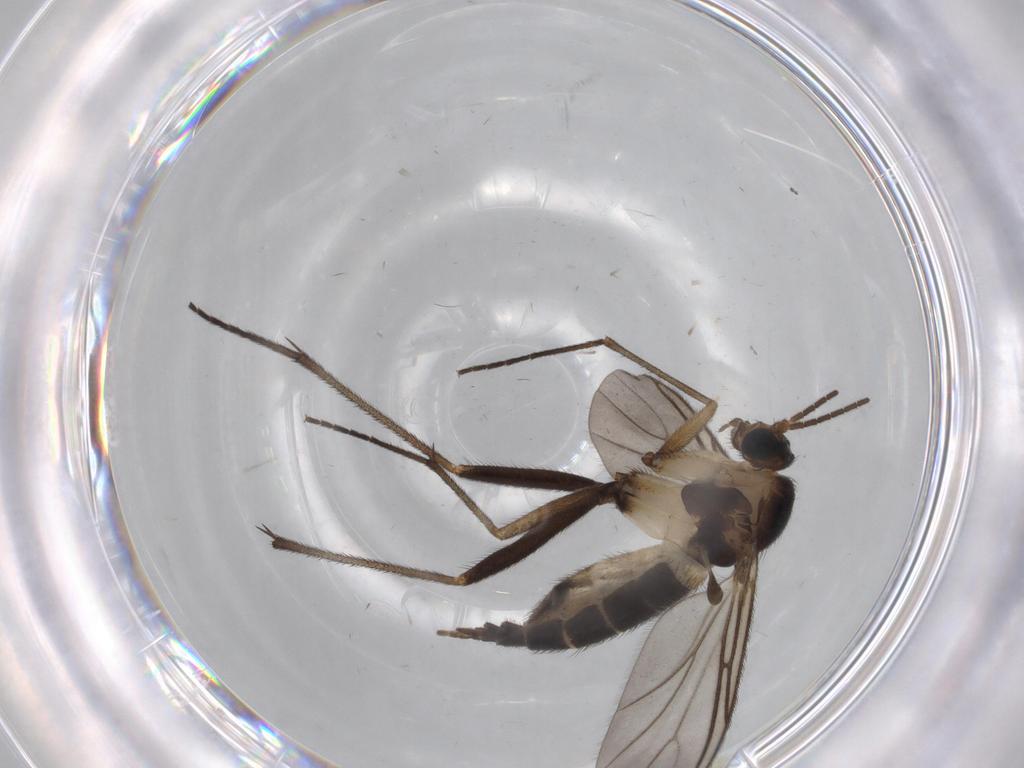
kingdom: Animalia
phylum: Arthropoda
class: Insecta
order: Diptera
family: Sciaridae
